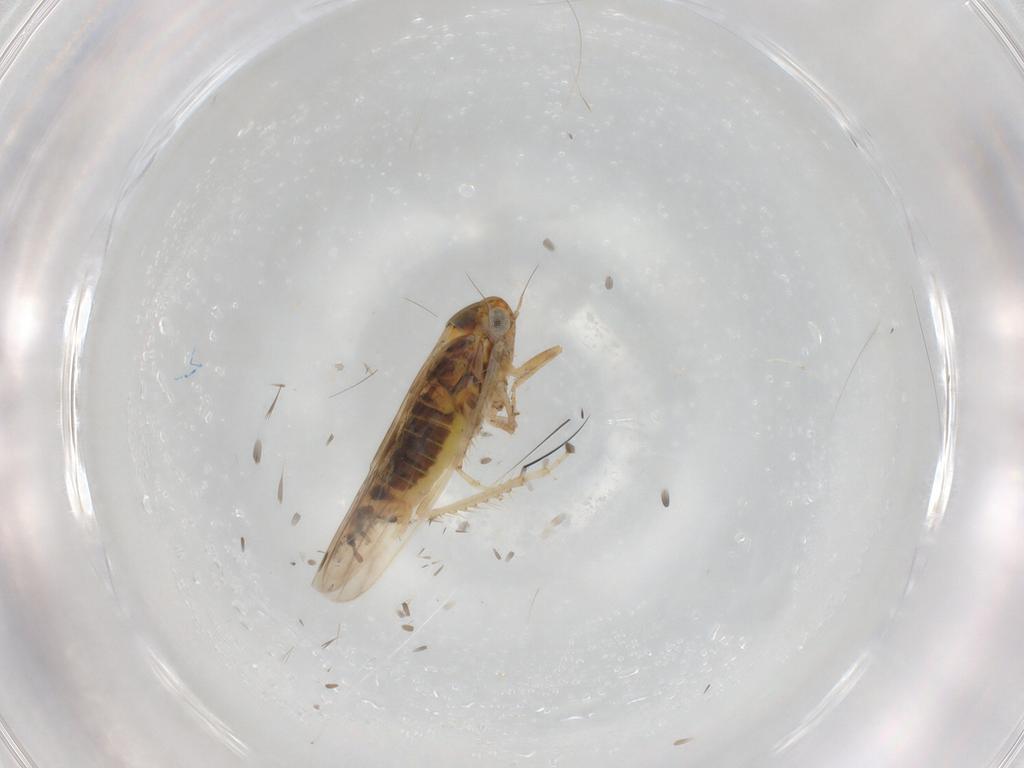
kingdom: Animalia
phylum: Arthropoda
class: Insecta
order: Hemiptera
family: Cicadellidae
